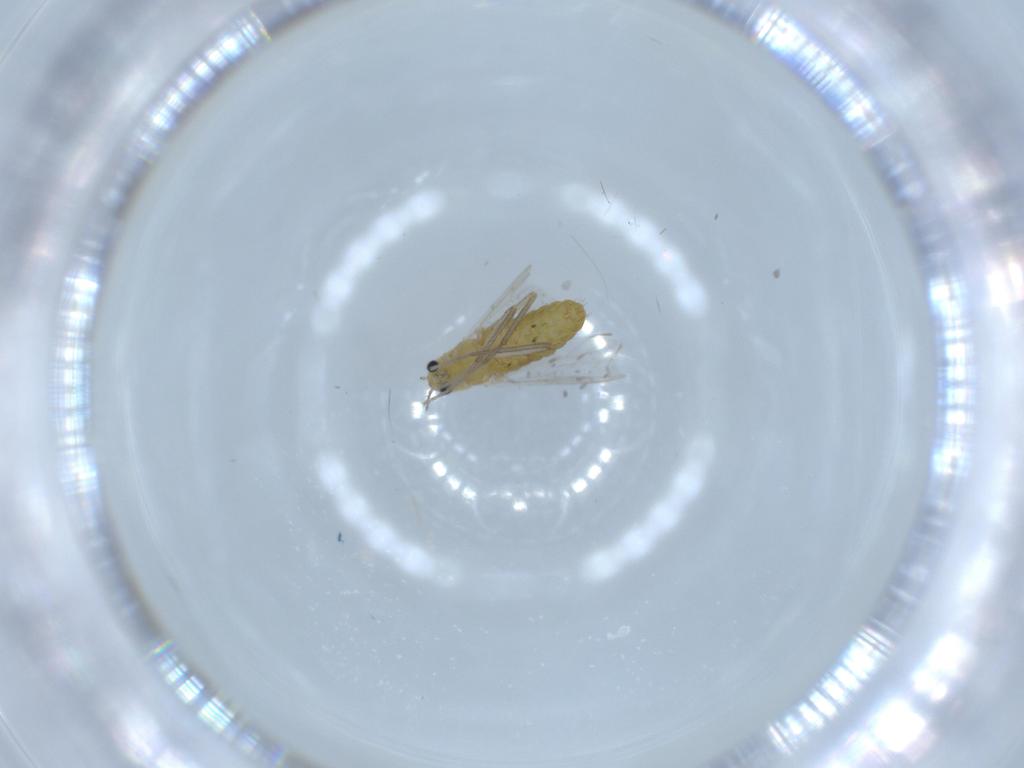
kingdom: Animalia
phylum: Arthropoda
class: Insecta
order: Diptera
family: Chironomidae
